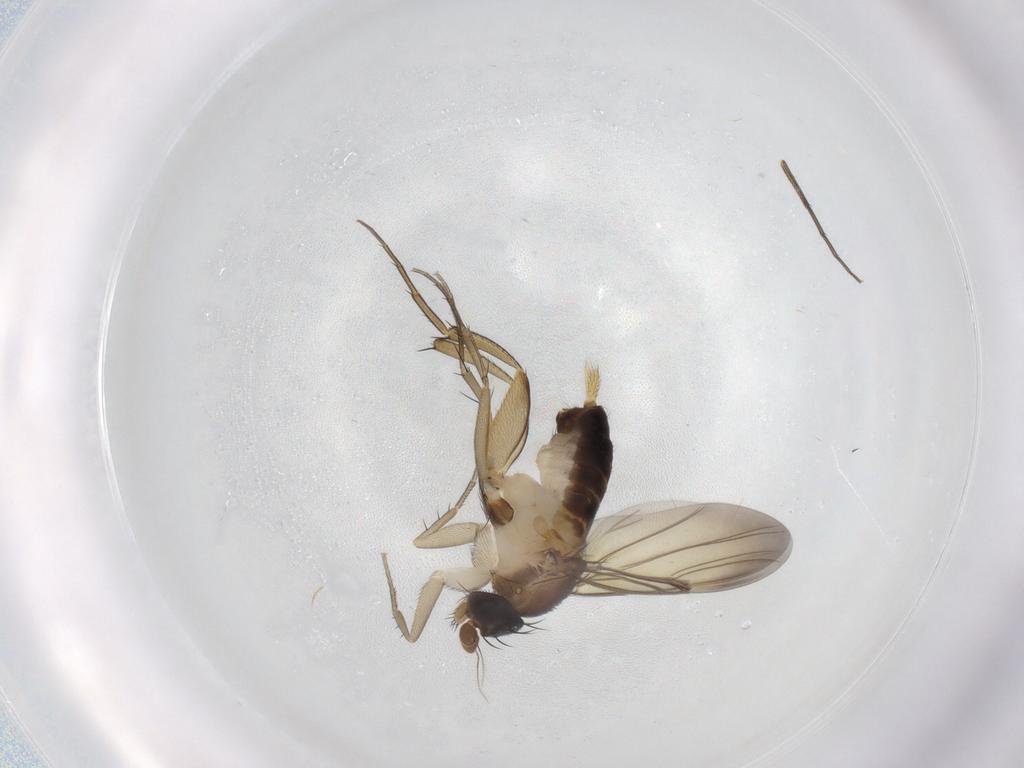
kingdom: Animalia
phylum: Arthropoda
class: Insecta
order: Diptera
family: Phoridae
